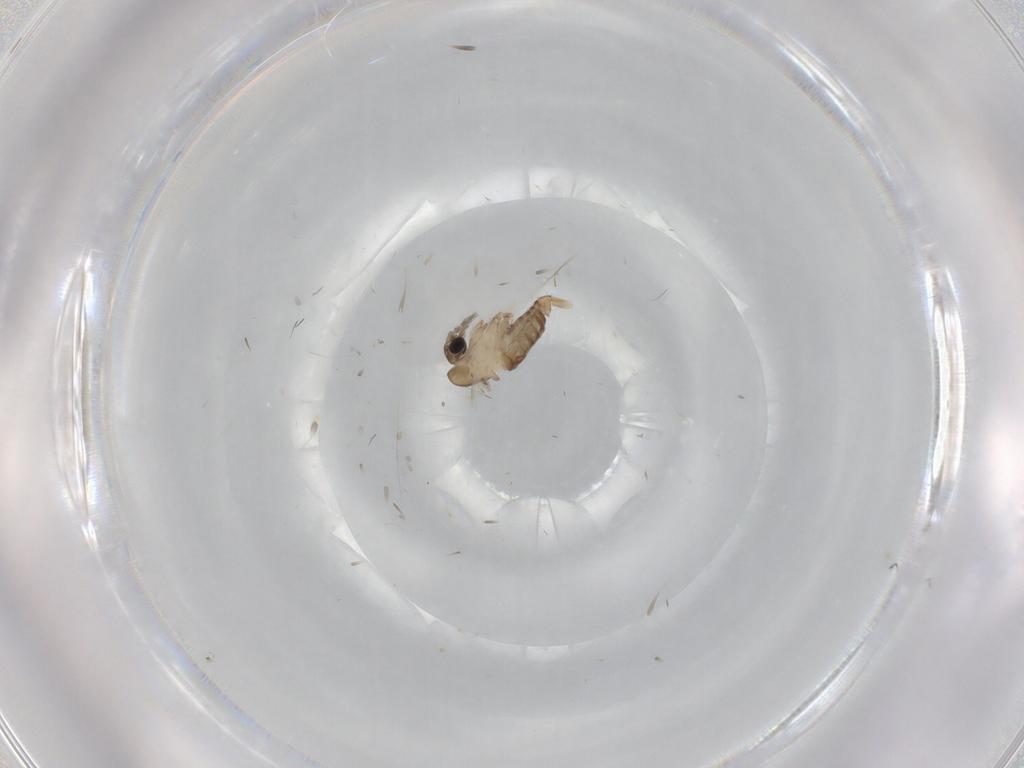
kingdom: Animalia
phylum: Arthropoda
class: Insecta
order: Diptera
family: Psychodidae
